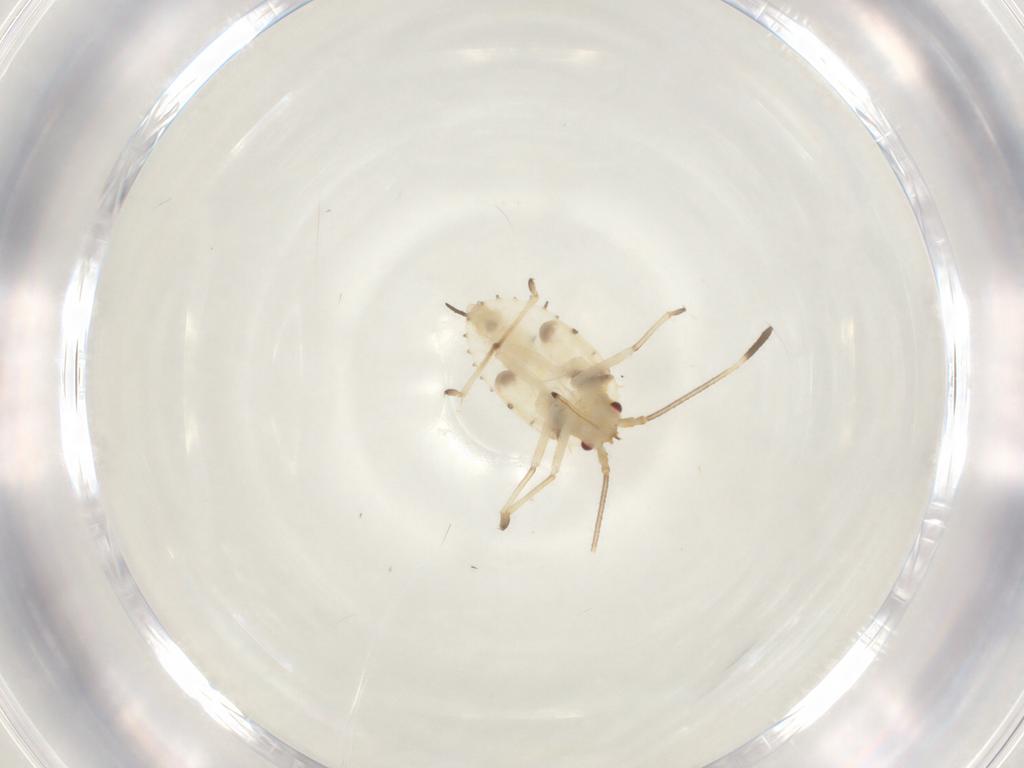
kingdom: Animalia
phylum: Arthropoda
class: Insecta
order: Hemiptera
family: Tingidae
